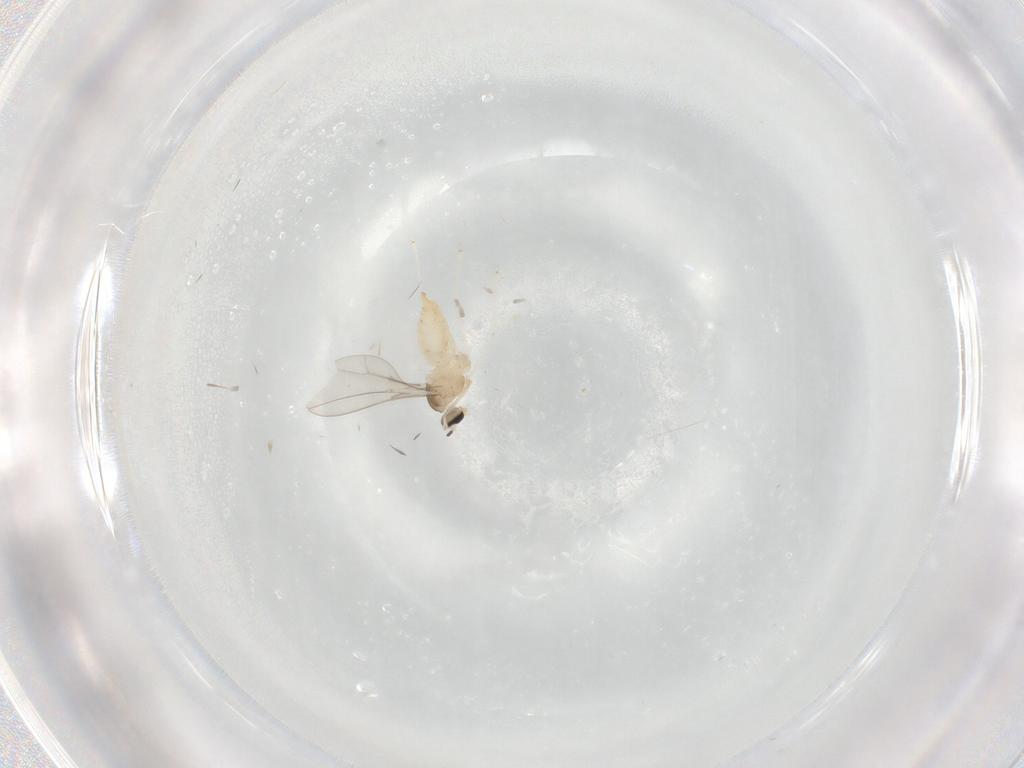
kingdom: Animalia
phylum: Arthropoda
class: Insecta
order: Diptera
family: Cecidomyiidae
